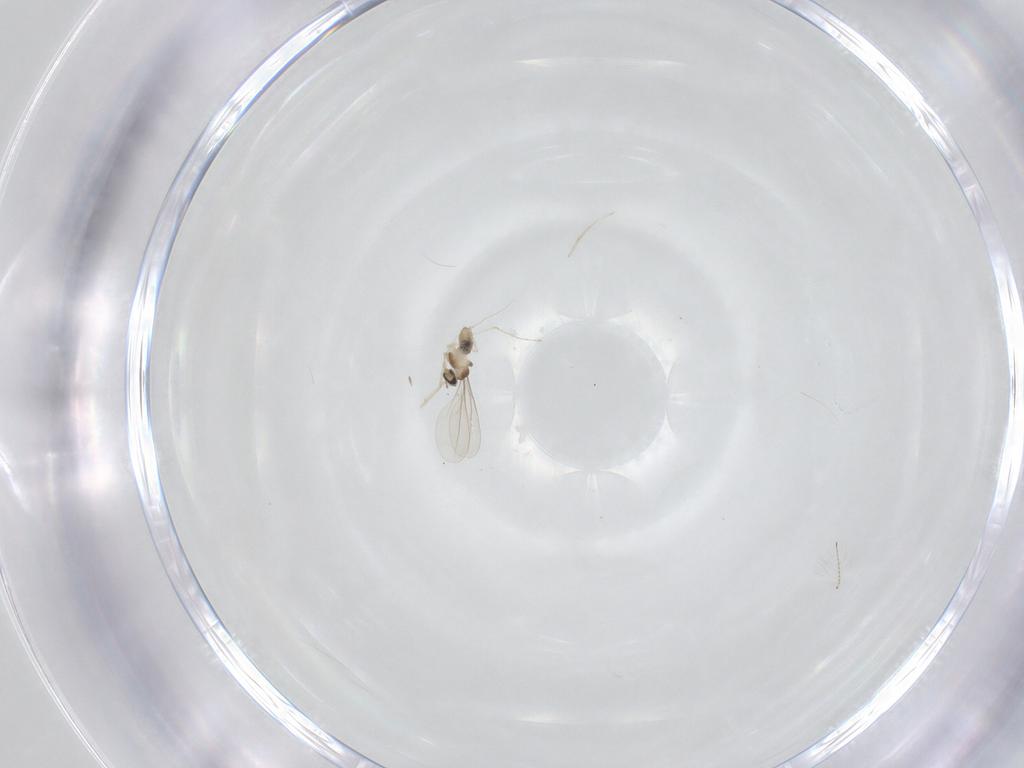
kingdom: Animalia
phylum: Arthropoda
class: Insecta
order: Diptera
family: Chironomidae
